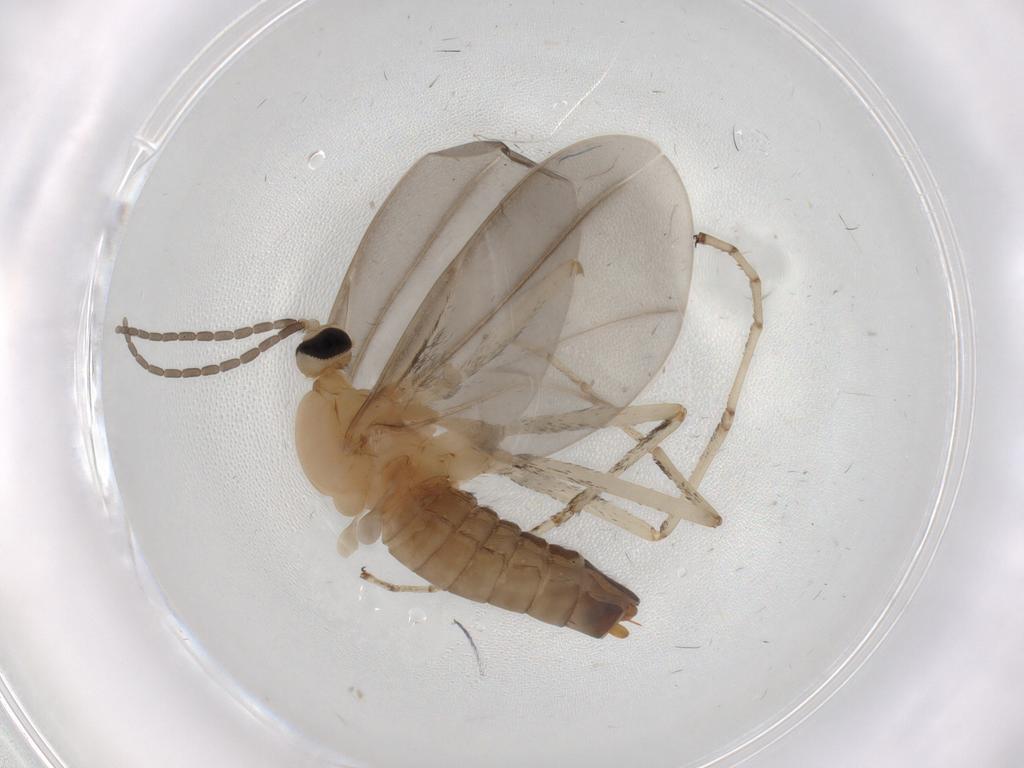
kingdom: Animalia
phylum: Arthropoda
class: Insecta
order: Diptera
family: Cecidomyiidae
